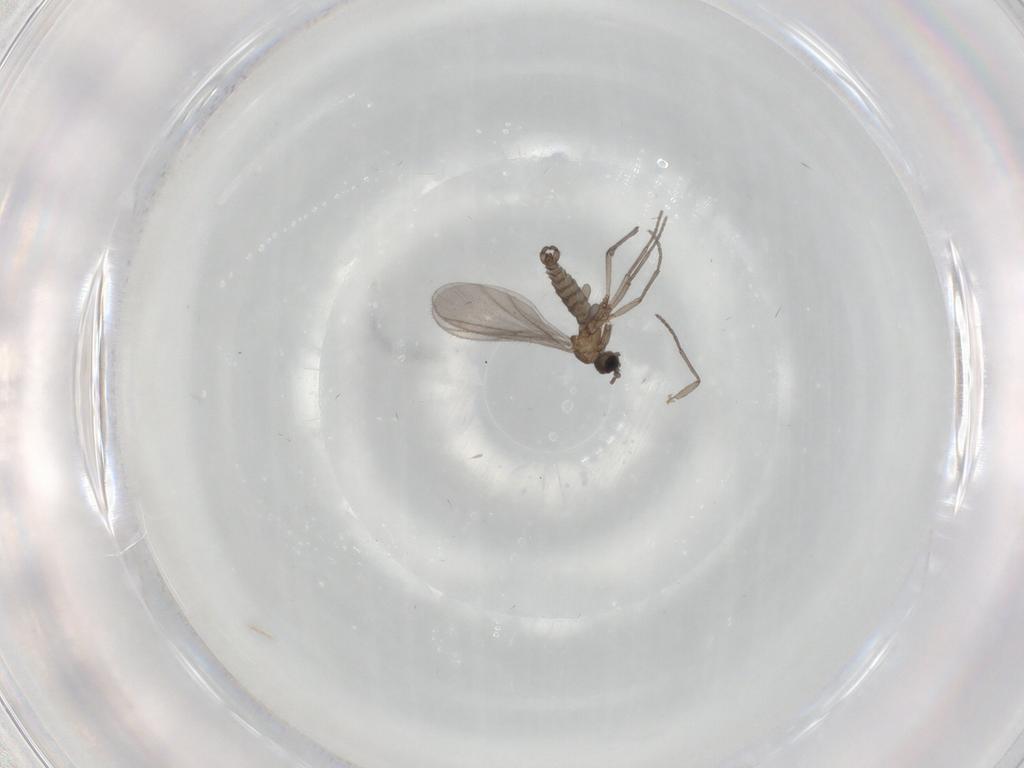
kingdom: Animalia
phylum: Arthropoda
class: Insecta
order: Diptera
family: Sciaridae
